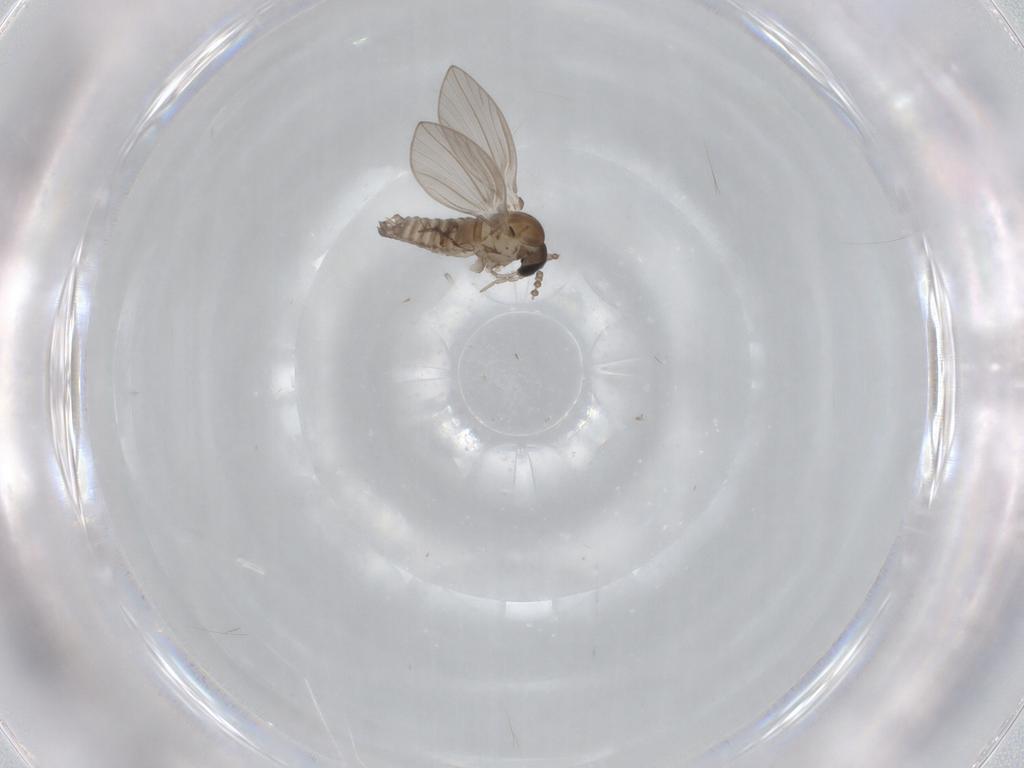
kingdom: Animalia
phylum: Arthropoda
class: Insecta
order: Diptera
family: Psychodidae
